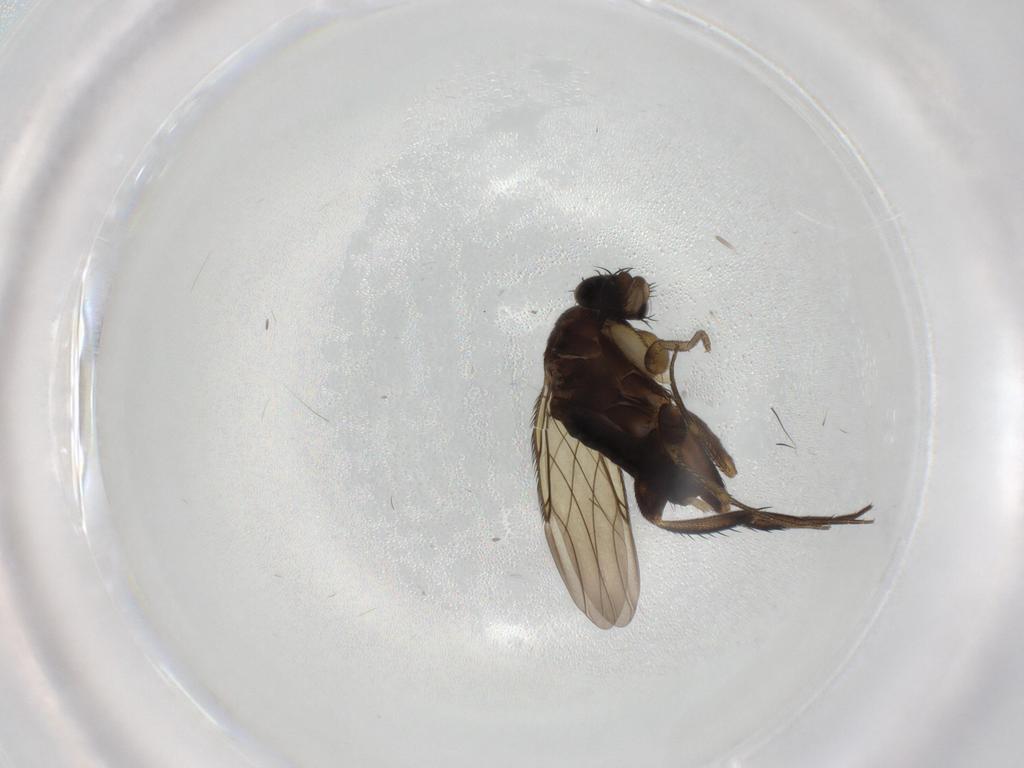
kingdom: Animalia
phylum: Arthropoda
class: Insecta
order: Diptera
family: Phoridae
